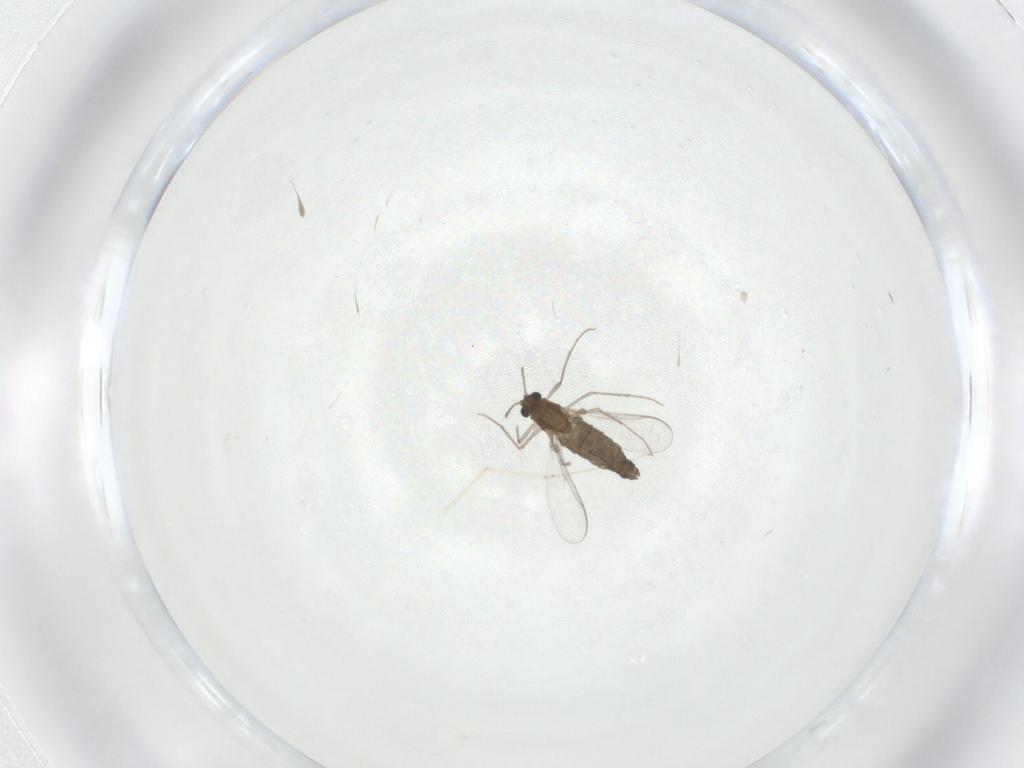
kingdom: Animalia
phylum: Arthropoda
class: Insecta
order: Diptera
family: Chironomidae
